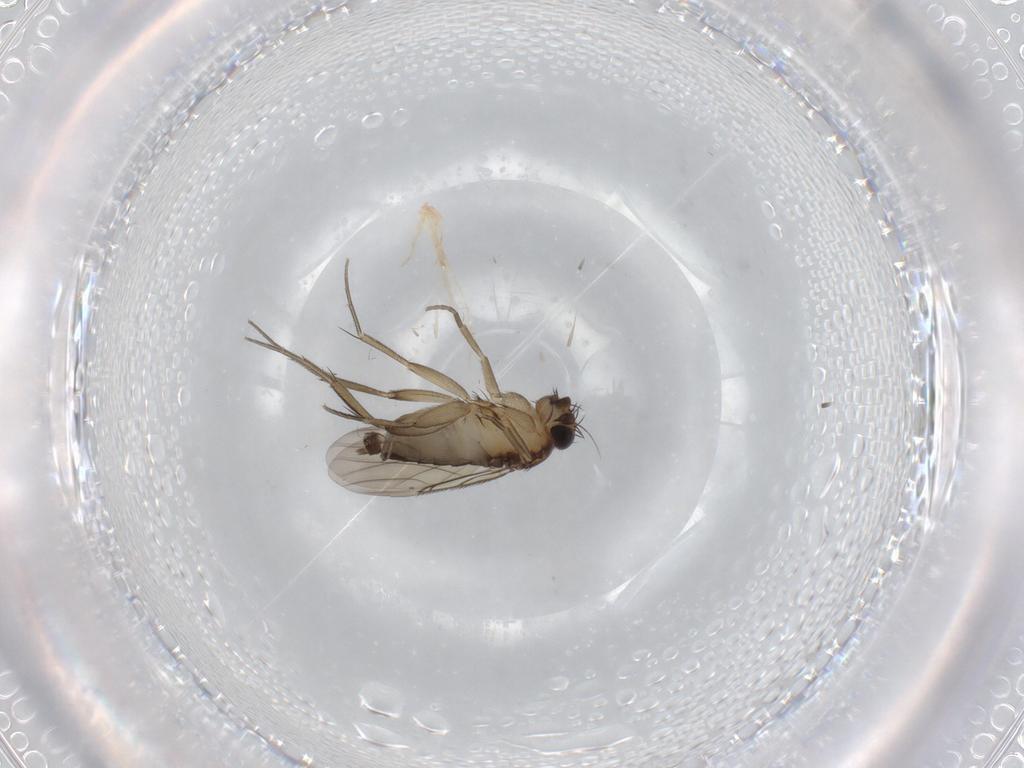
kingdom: Animalia
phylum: Arthropoda
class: Insecta
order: Diptera
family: Phoridae
